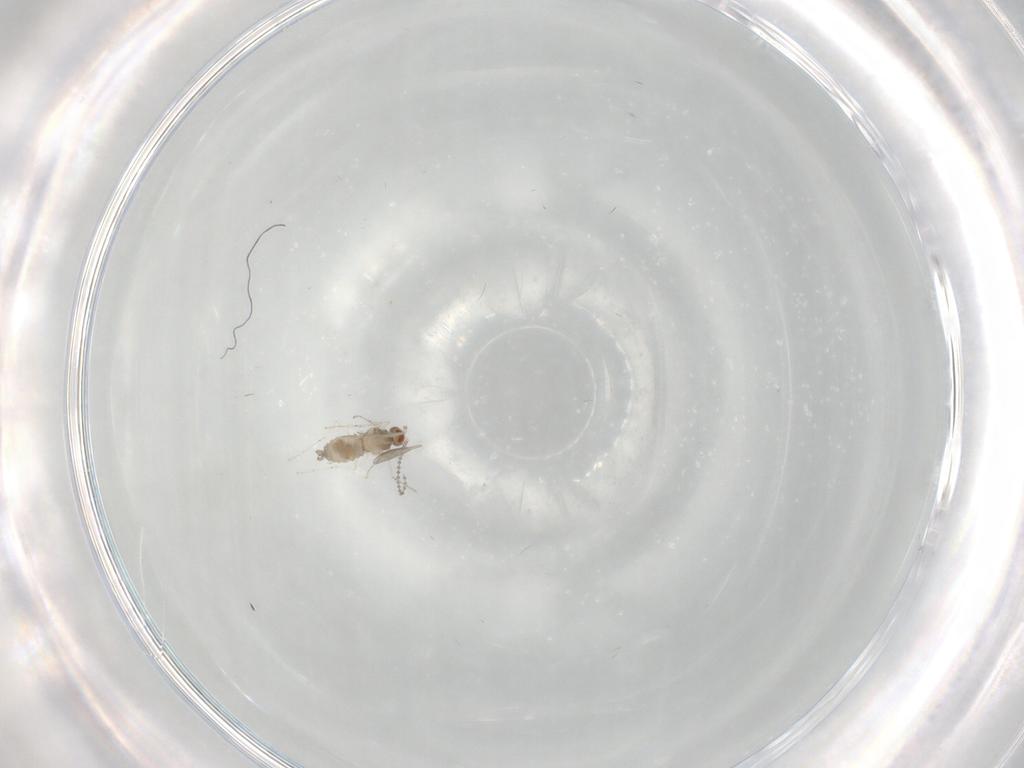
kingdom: Animalia
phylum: Arthropoda
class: Insecta
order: Diptera
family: Cecidomyiidae
